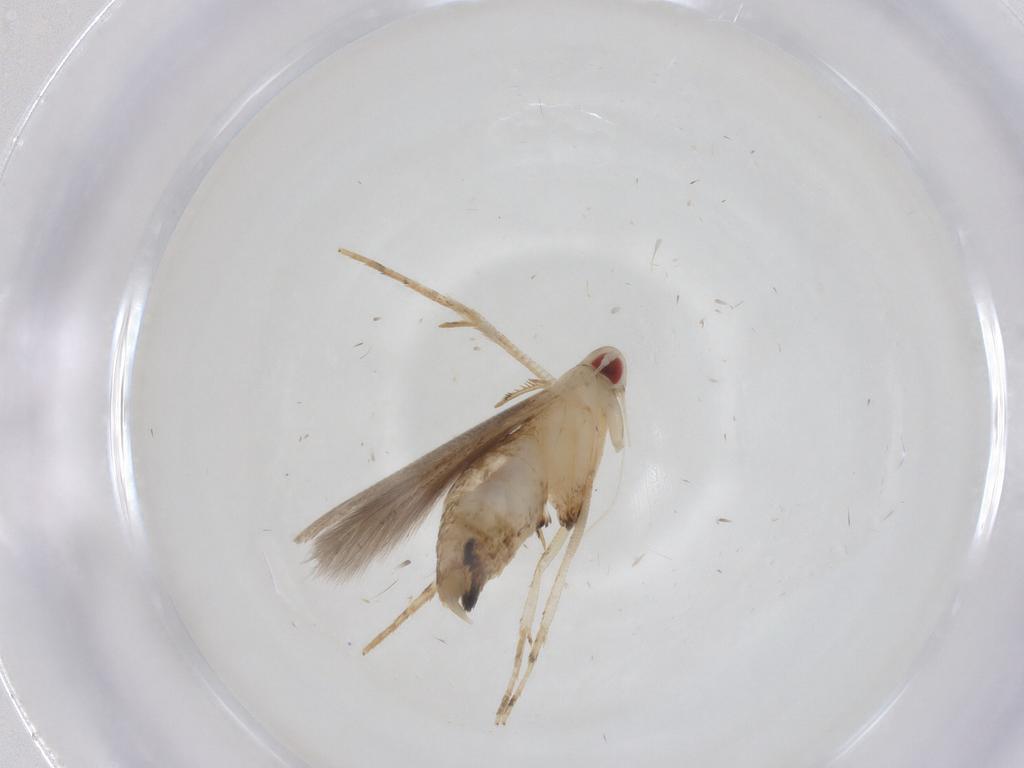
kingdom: Animalia
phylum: Arthropoda
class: Insecta
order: Lepidoptera
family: Cosmopterigidae
